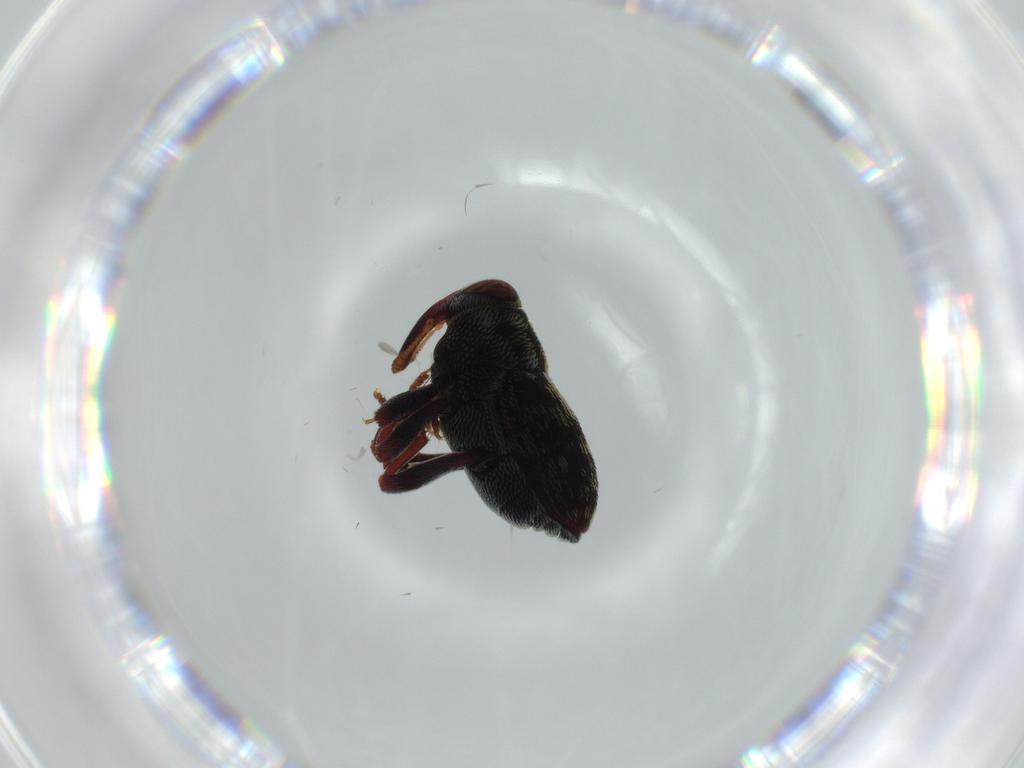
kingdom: Animalia
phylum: Arthropoda
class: Insecta
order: Coleoptera
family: Curculionidae
